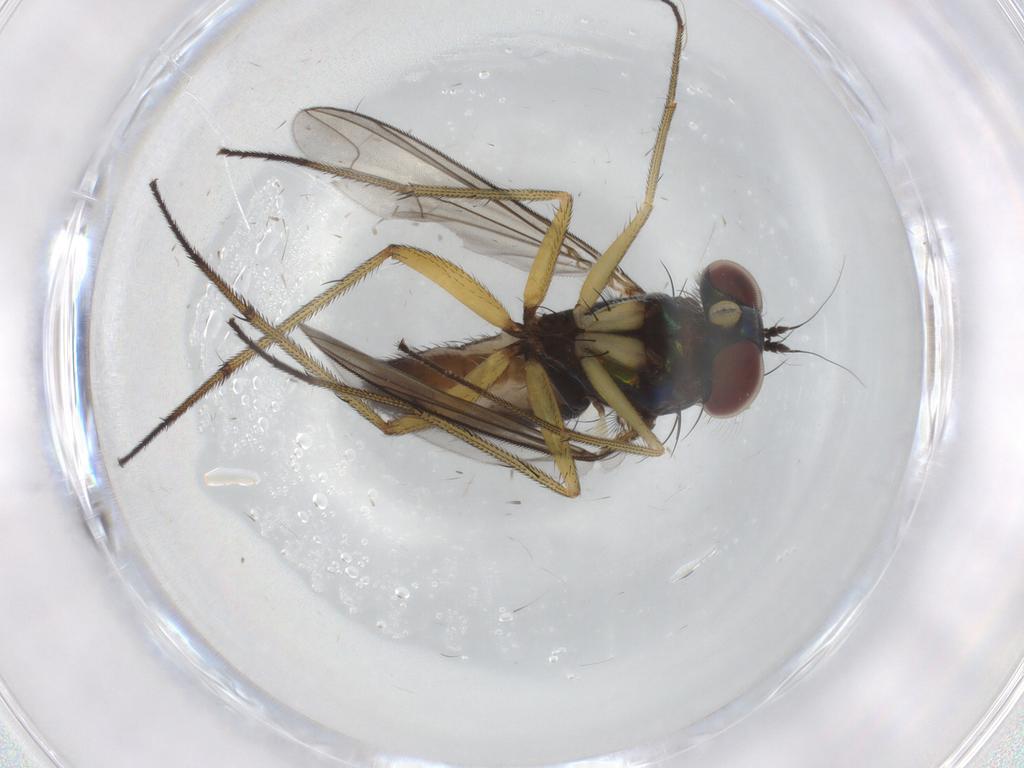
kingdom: Animalia
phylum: Arthropoda
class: Insecta
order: Diptera
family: Dolichopodidae
